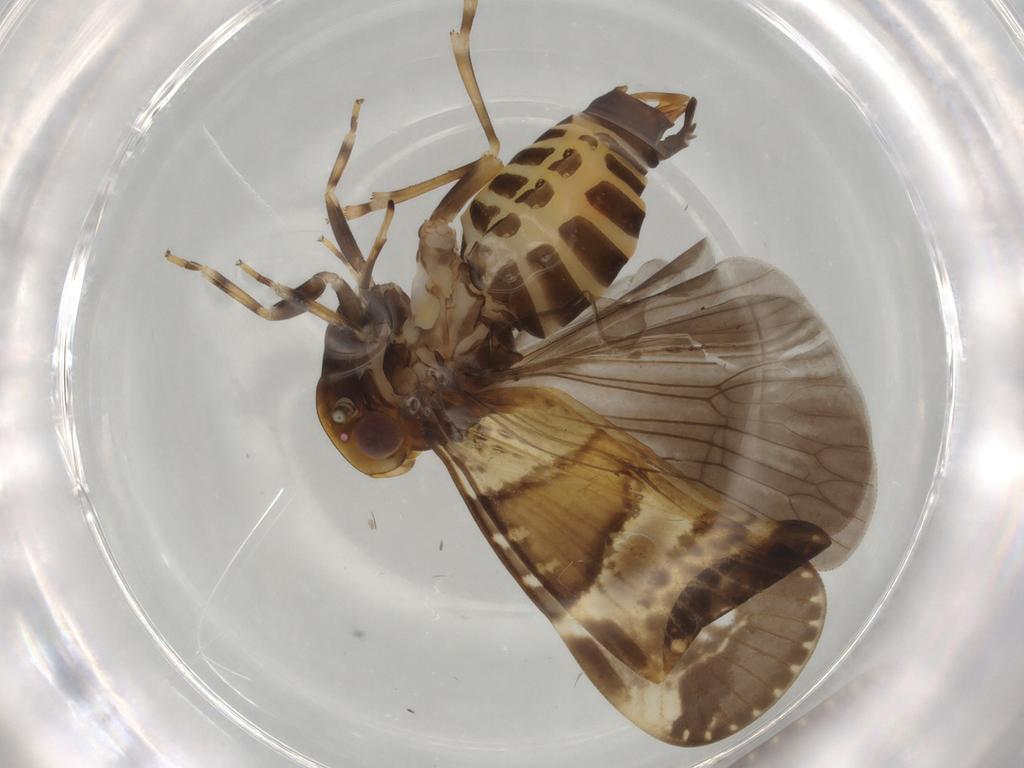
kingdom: Animalia
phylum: Arthropoda
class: Insecta
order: Hemiptera
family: Cixiidae
